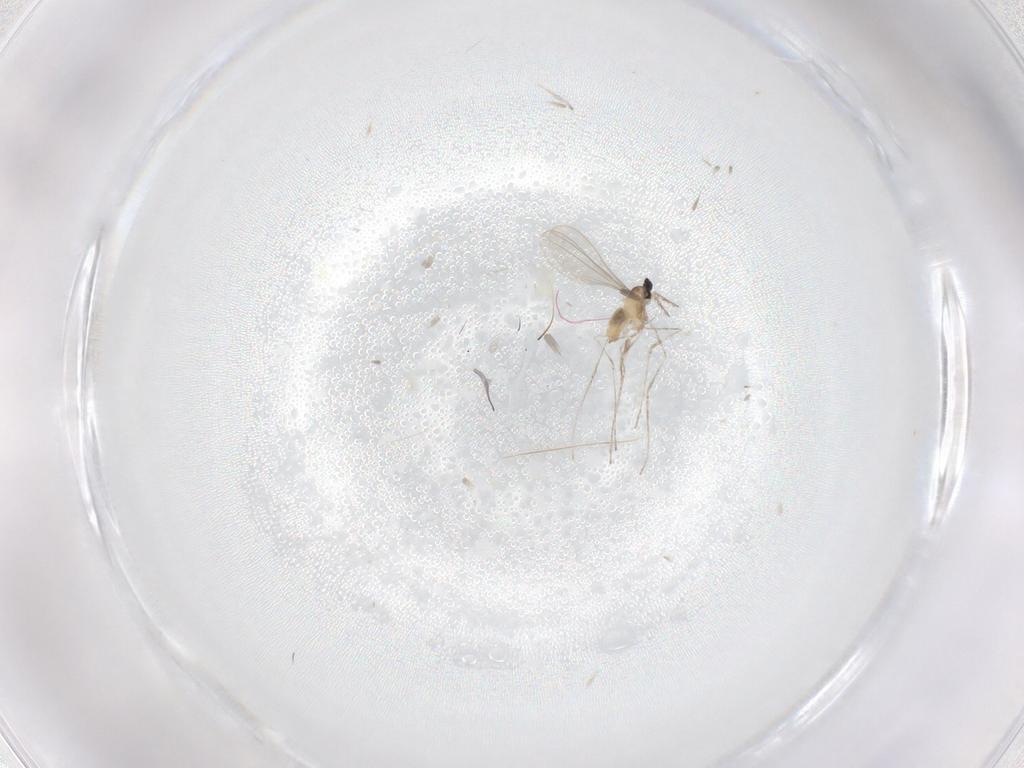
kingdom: Animalia
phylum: Arthropoda
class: Insecta
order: Diptera
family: Cecidomyiidae
